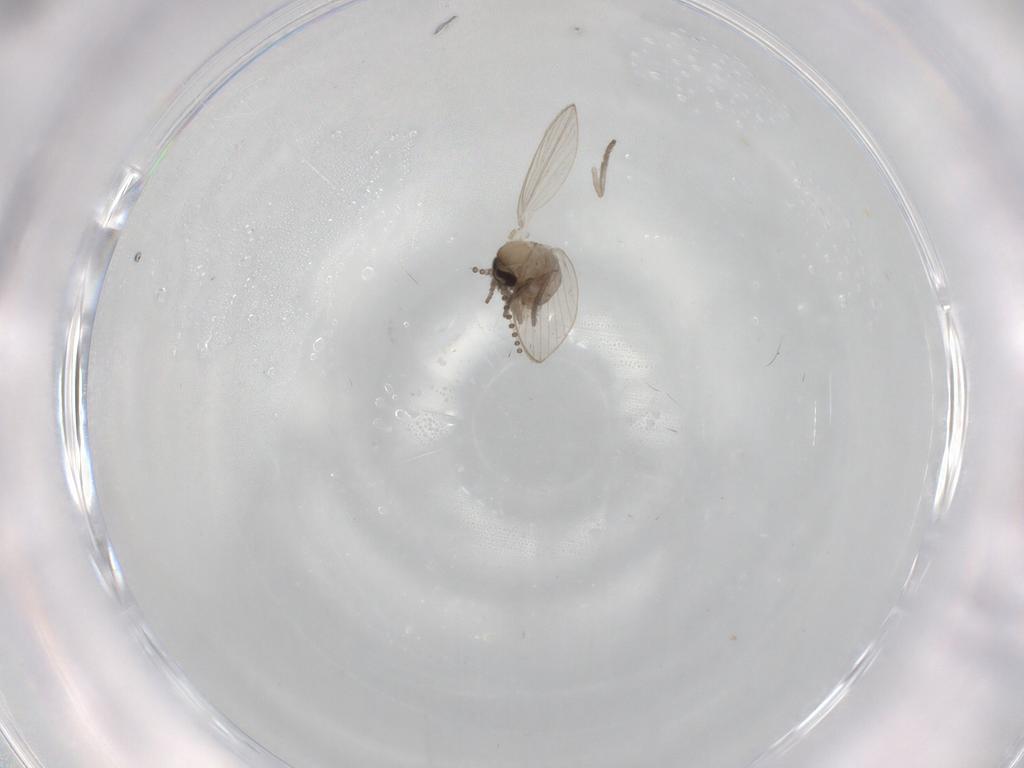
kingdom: Animalia
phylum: Arthropoda
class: Insecta
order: Diptera
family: Psychodidae
